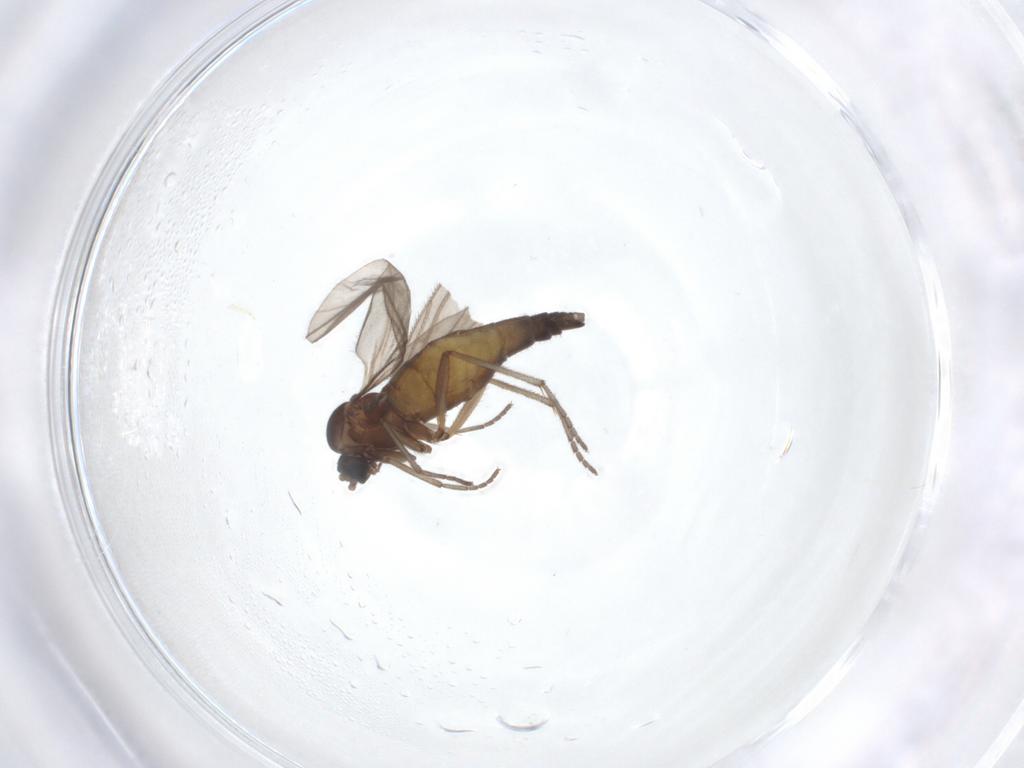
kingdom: Animalia
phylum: Arthropoda
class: Insecta
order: Diptera
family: Sciaridae
